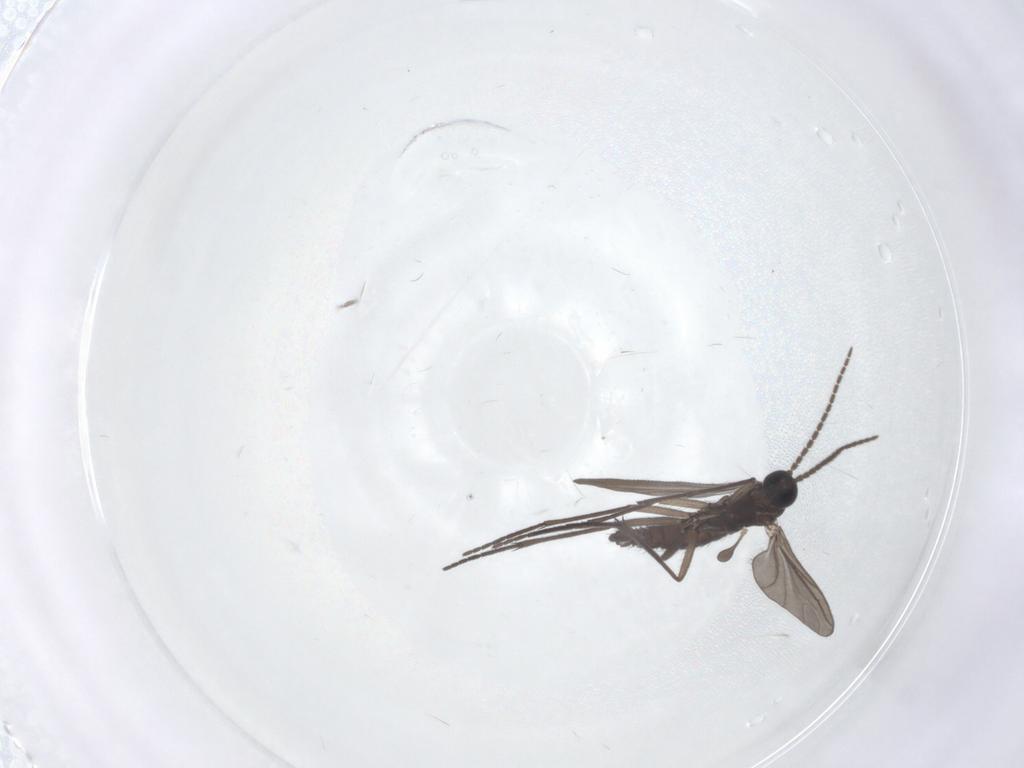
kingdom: Animalia
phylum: Arthropoda
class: Insecta
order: Diptera
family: Sciaridae
